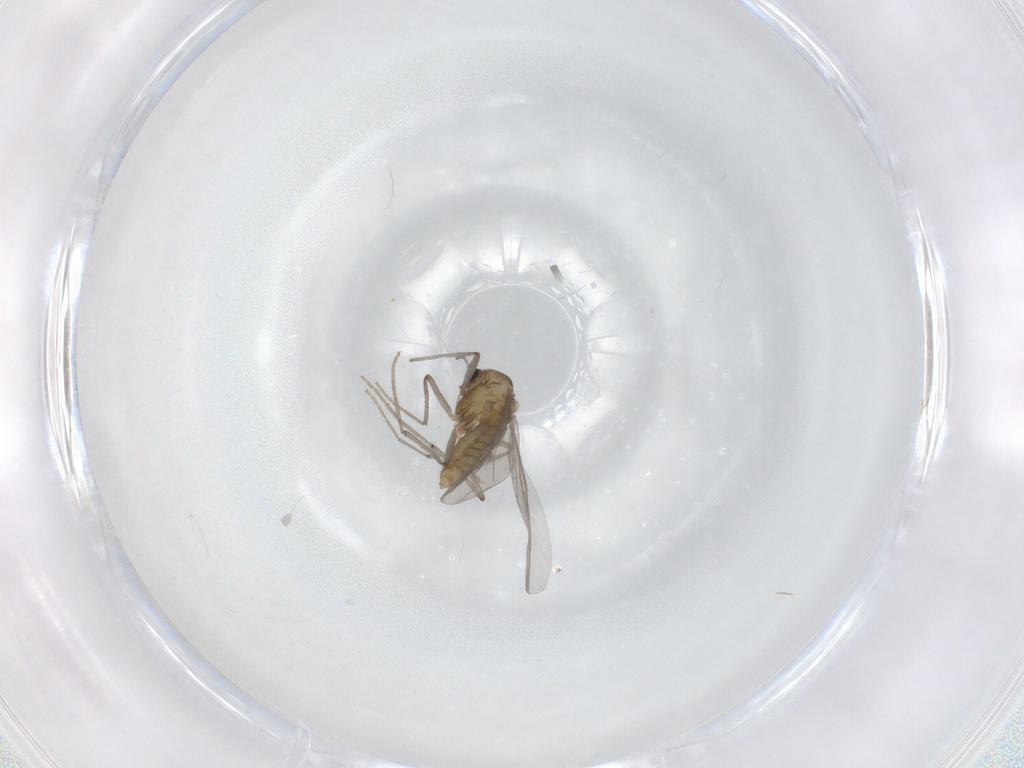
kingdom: Animalia
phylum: Arthropoda
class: Insecta
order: Diptera
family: Chironomidae
